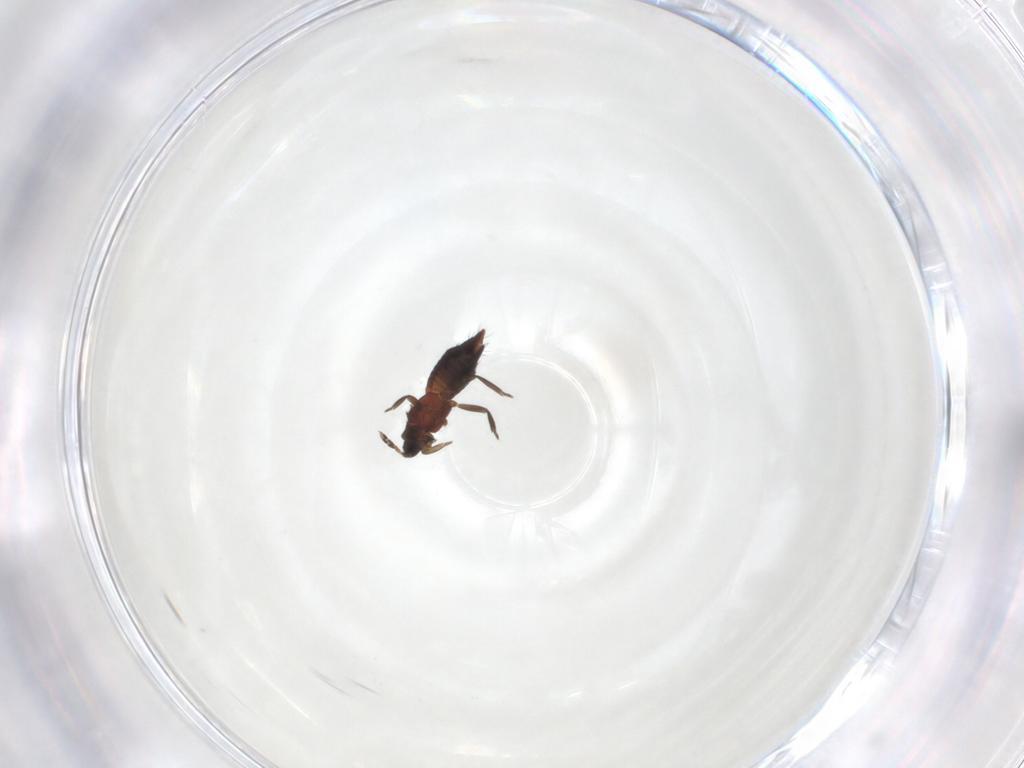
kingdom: Animalia
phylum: Arthropoda
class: Insecta
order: Thysanoptera
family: Aeolothripidae
